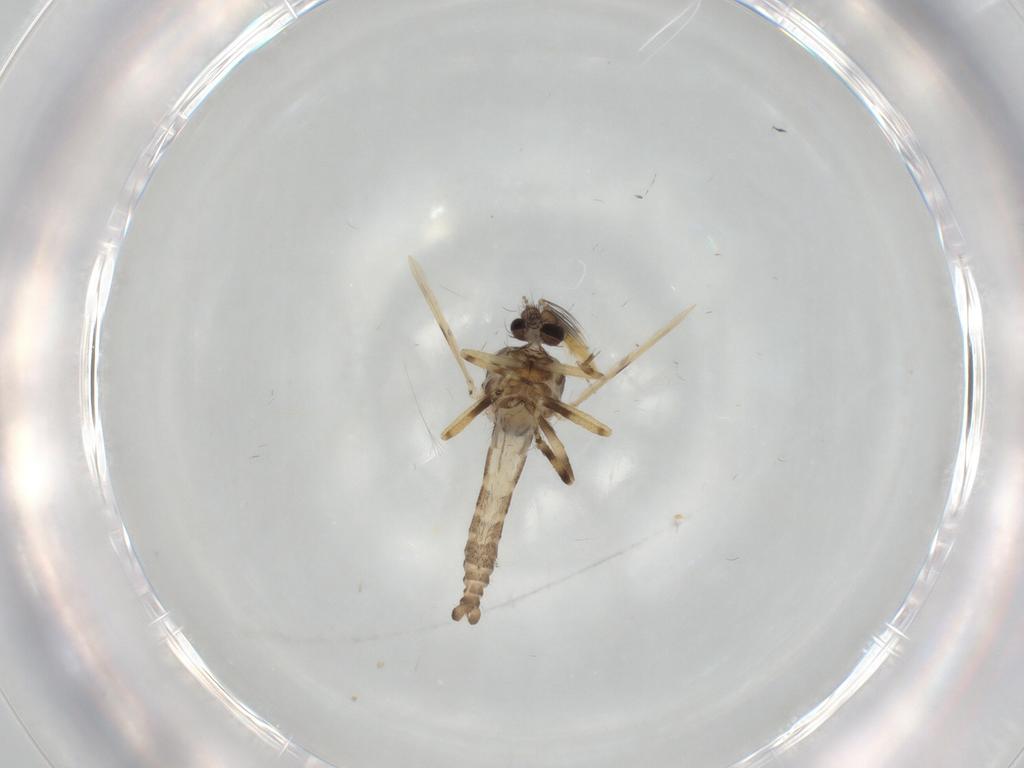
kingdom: Animalia
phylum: Arthropoda
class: Insecta
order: Diptera
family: Ceratopogonidae
